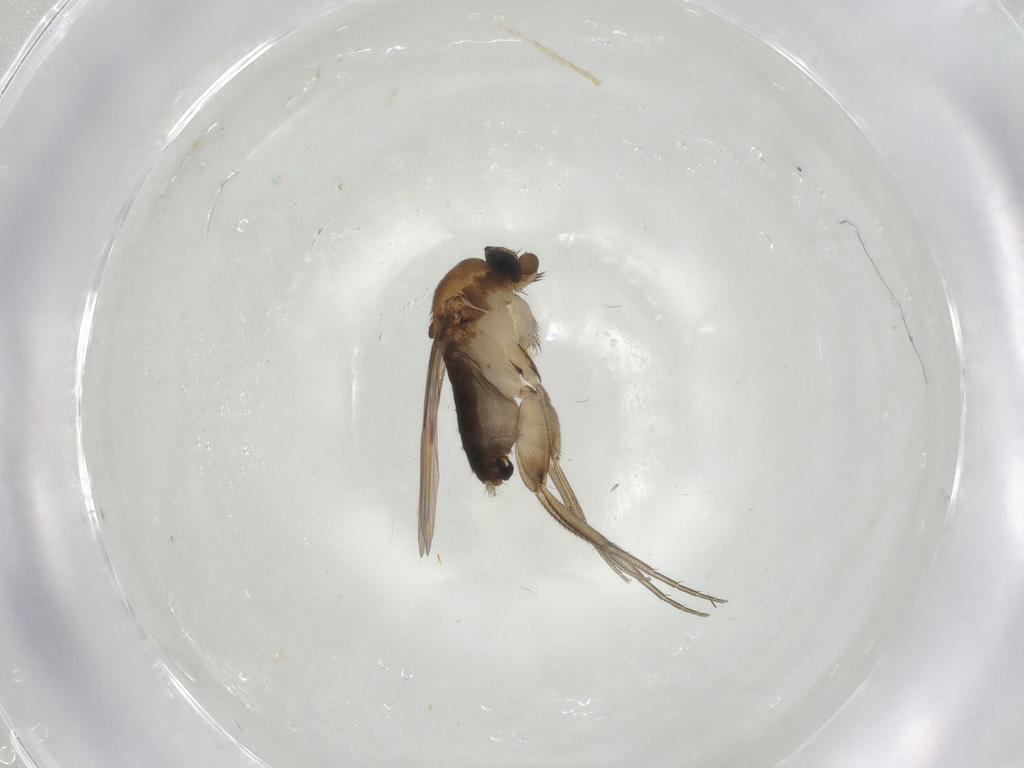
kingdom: Animalia
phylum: Arthropoda
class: Insecta
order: Diptera
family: Phoridae
